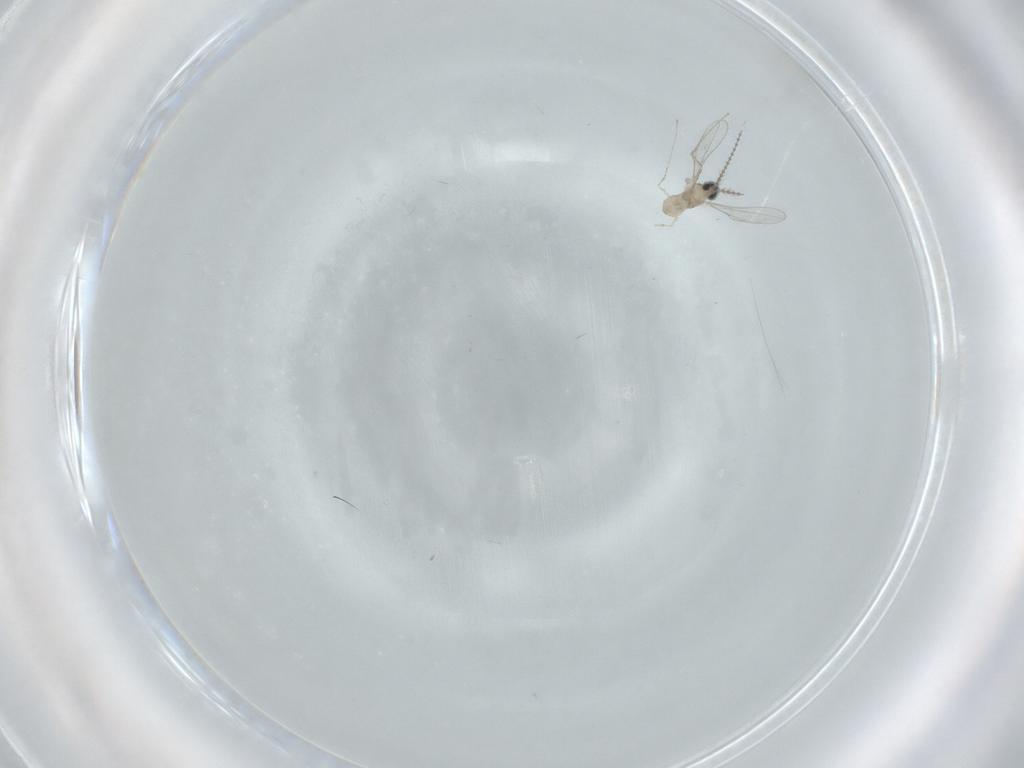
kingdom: Animalia
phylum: Arthropoda
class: Insecta
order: Diptera
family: Cecidomyiidae
